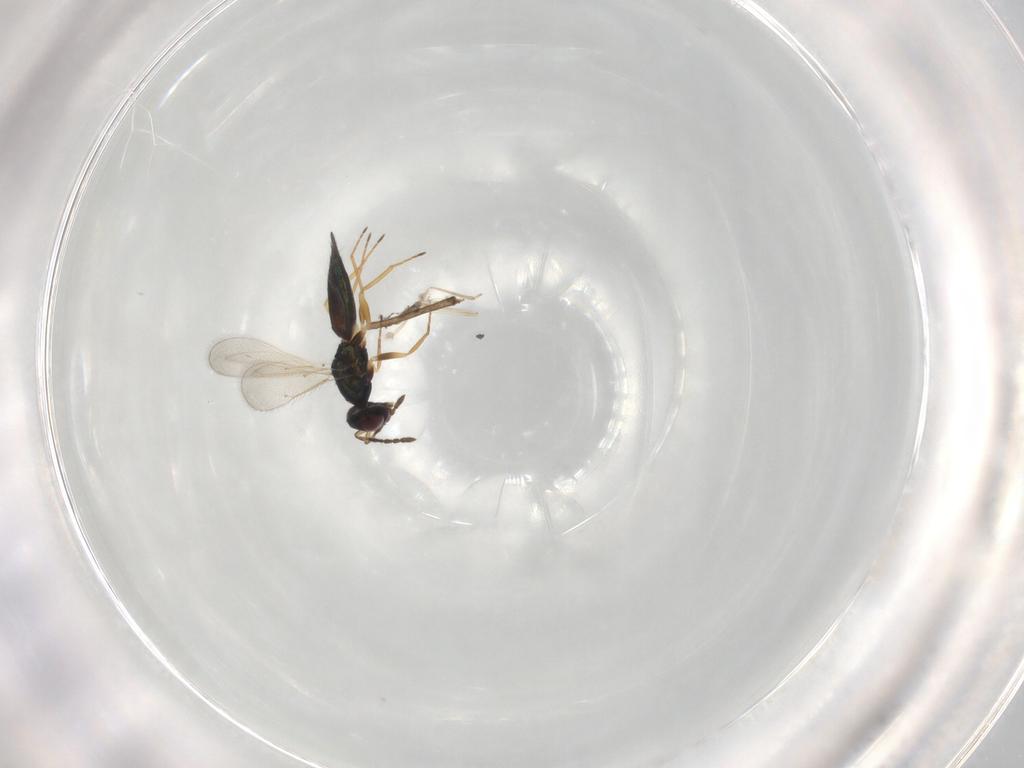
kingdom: Animalia
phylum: Arthropoda
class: Insecta
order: Hymenoptera
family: Eulophidae
